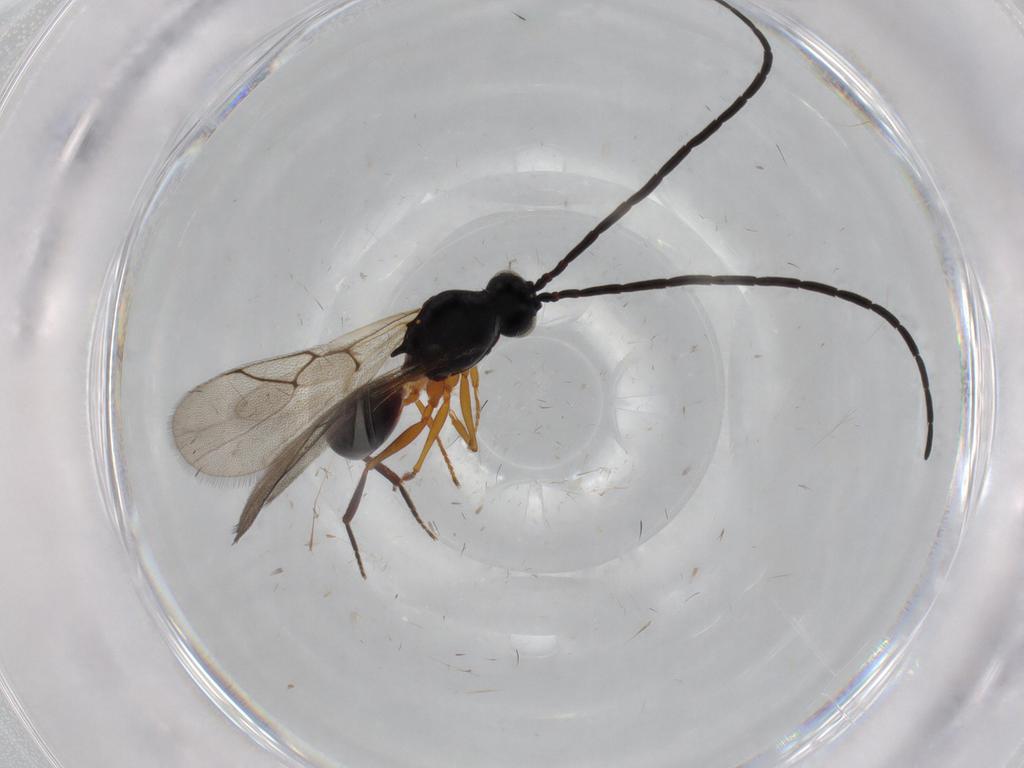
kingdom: Animalia
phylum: Arthropoda
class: Insecta
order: Hymenoptera
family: Figitidae
